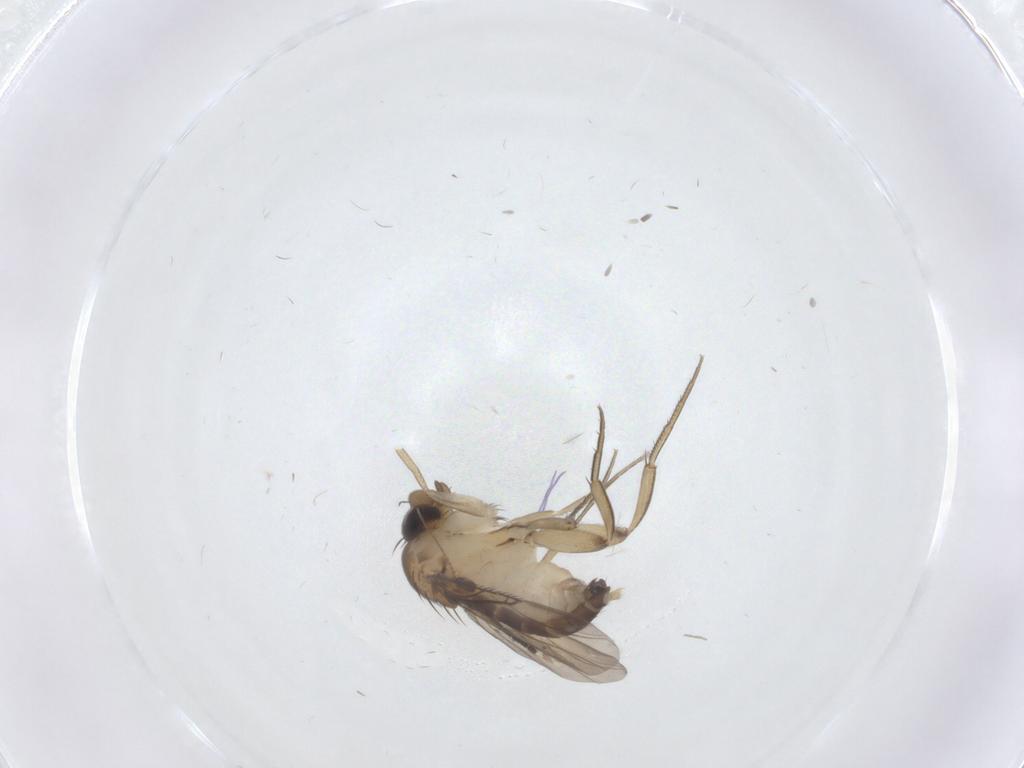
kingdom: Animalia
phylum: Arthropoda
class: Insecta
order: Diptera
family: Phoridae
